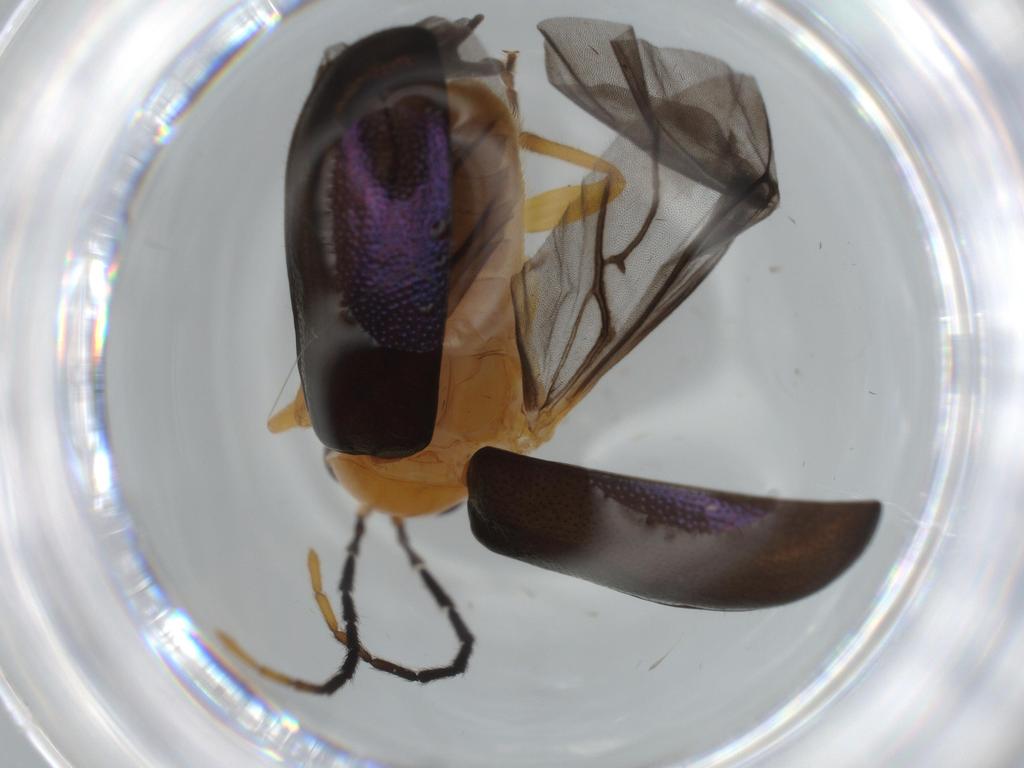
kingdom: Animalia
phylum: Arthropoda
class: Insecta
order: Coleoptera
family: Chrysomelidae
